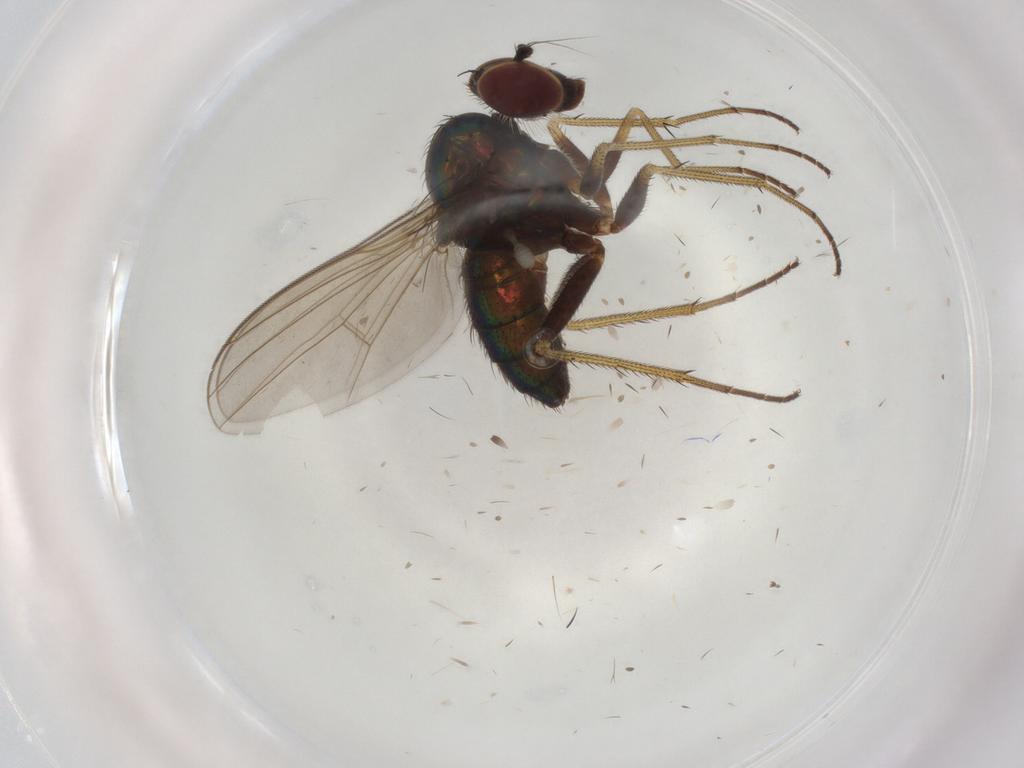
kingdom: Animalia
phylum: Arthropoda
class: Insecta
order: Diptera
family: Dolichopodidae
